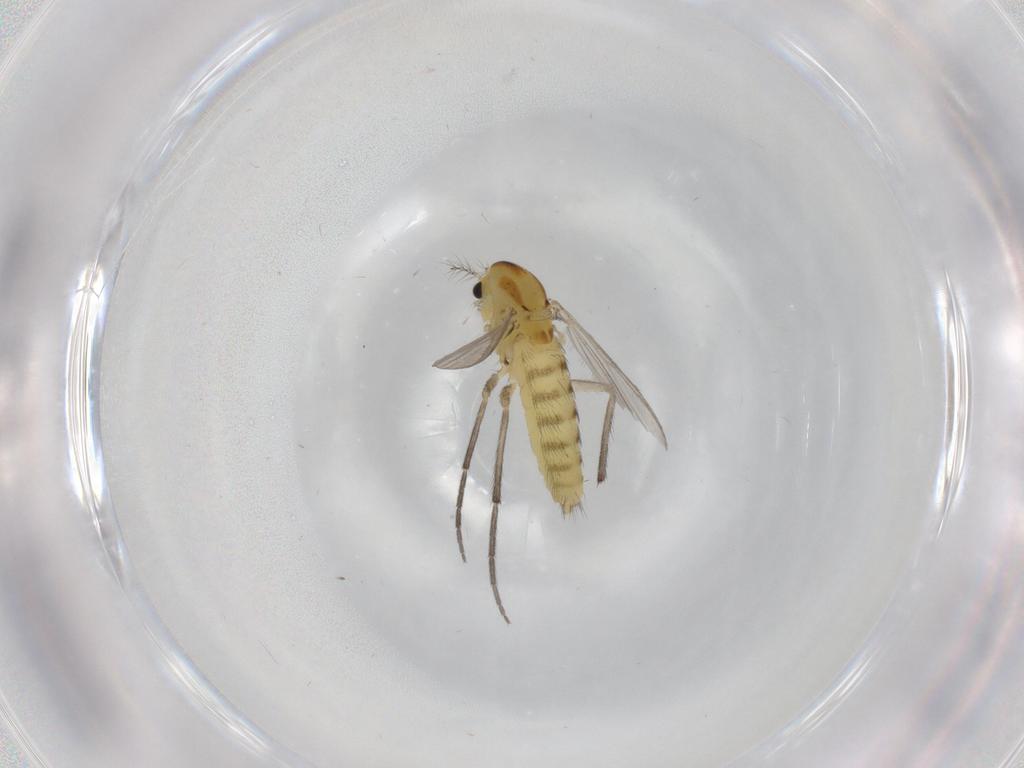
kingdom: Animalia
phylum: Arthropoda
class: Insecta
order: Diptera
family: Chironomidae
